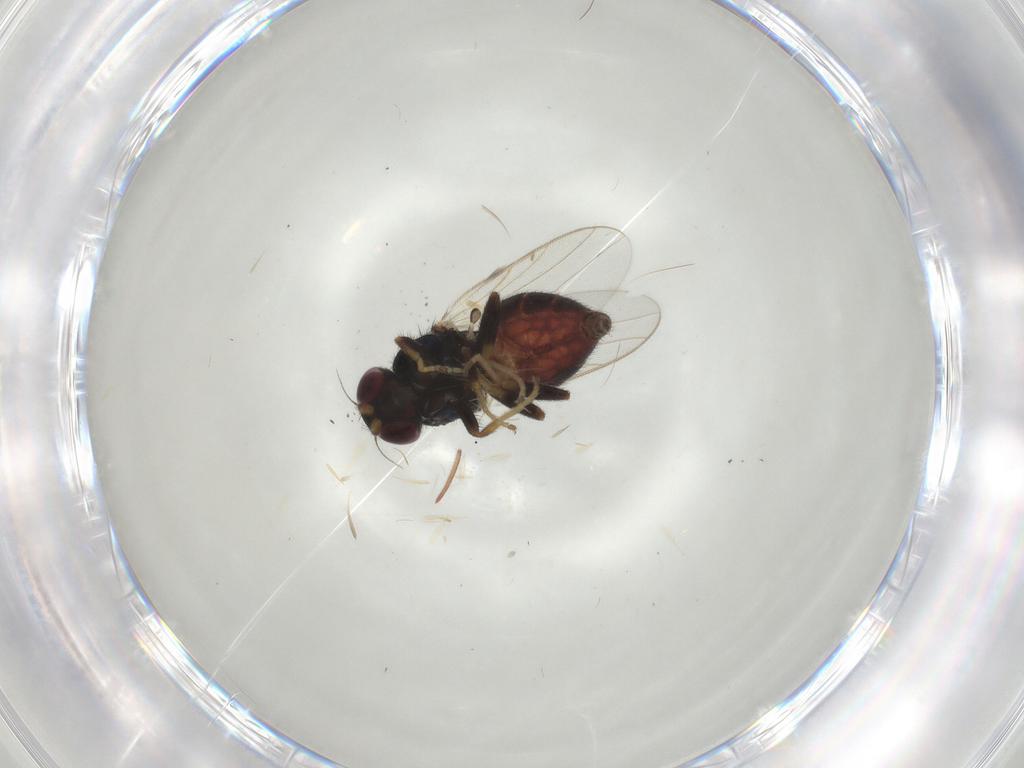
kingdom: Animalia
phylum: Arthropoda
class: Insecta
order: Diptera
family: Chloropidae
